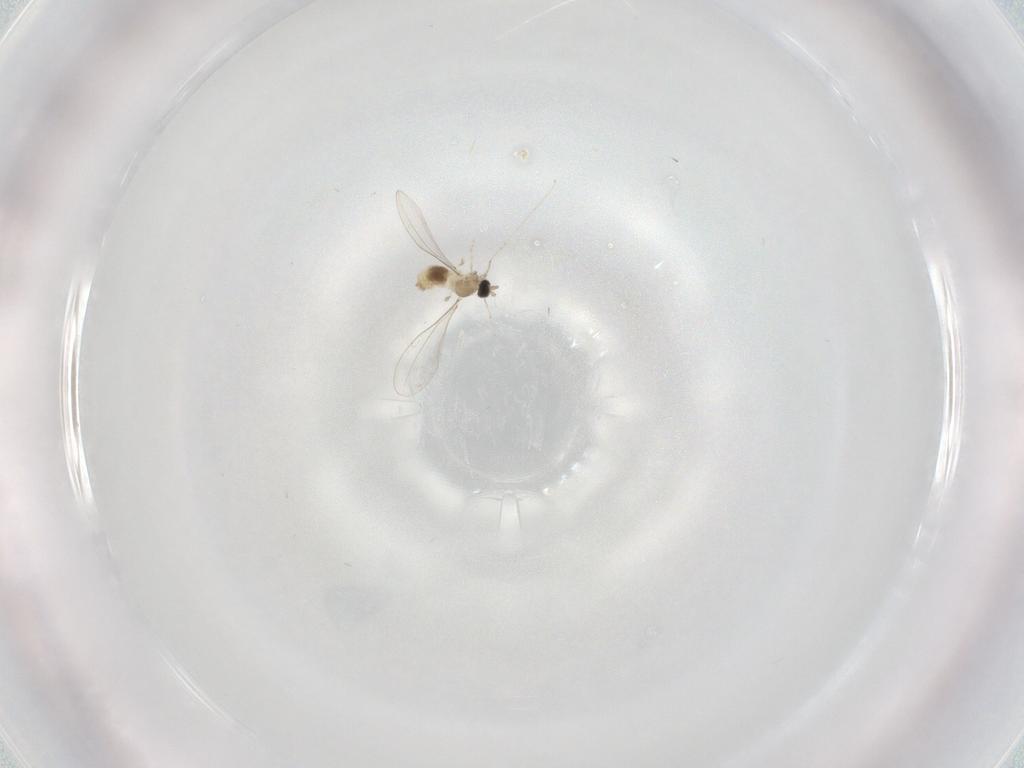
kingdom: Animalia
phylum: Arthropoda
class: Insecta
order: Diptera
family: Cecidomyiidae
